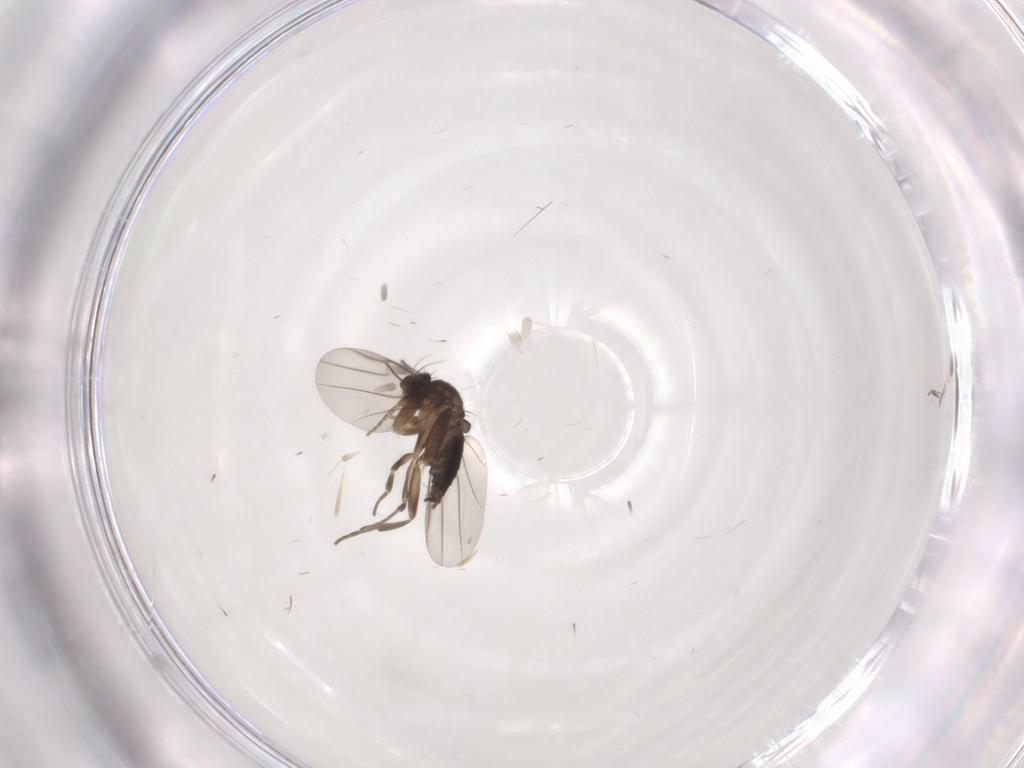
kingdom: Animalia
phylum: Arthropoda
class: Insecta
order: Diptera
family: Phoridae
